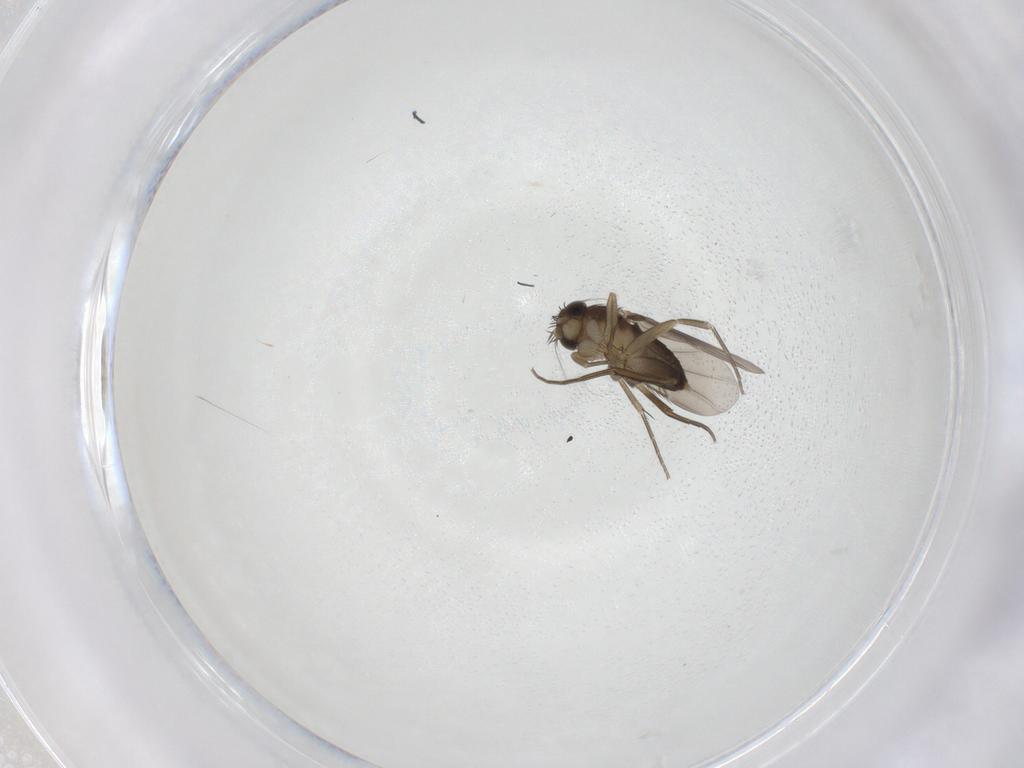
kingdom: Animalia
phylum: Arthropoda
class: Insecta
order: Diptera
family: Phoridae
